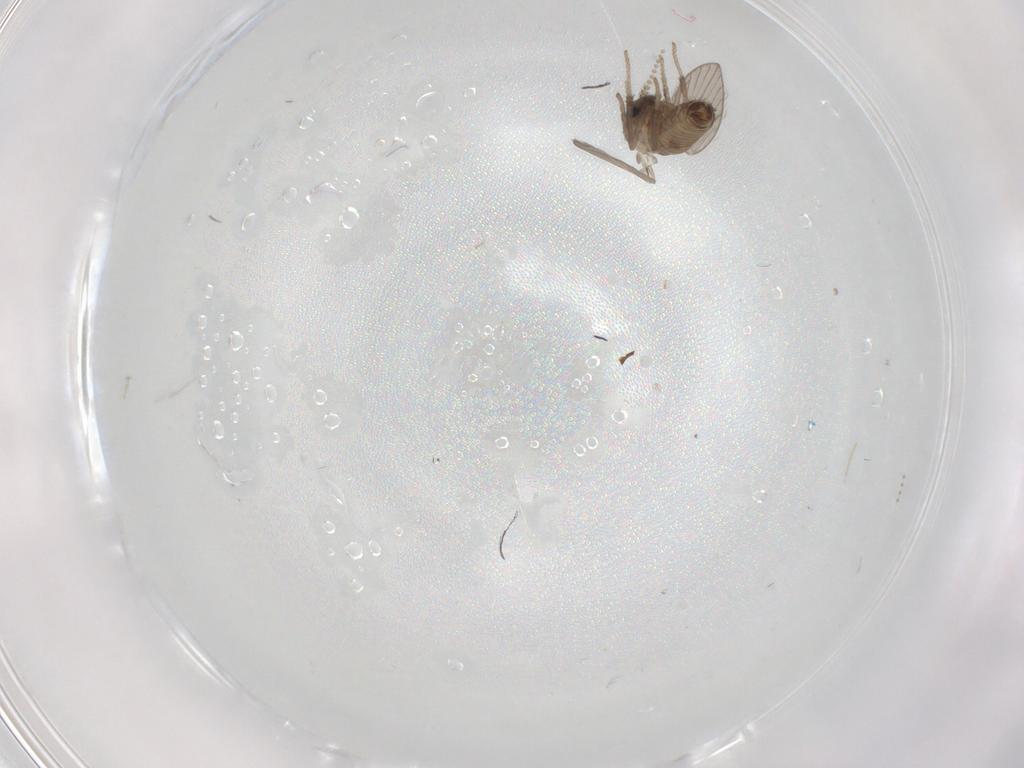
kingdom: Animalia
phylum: Arthropoda
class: Insecta
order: Diptera
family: Psychodidae
